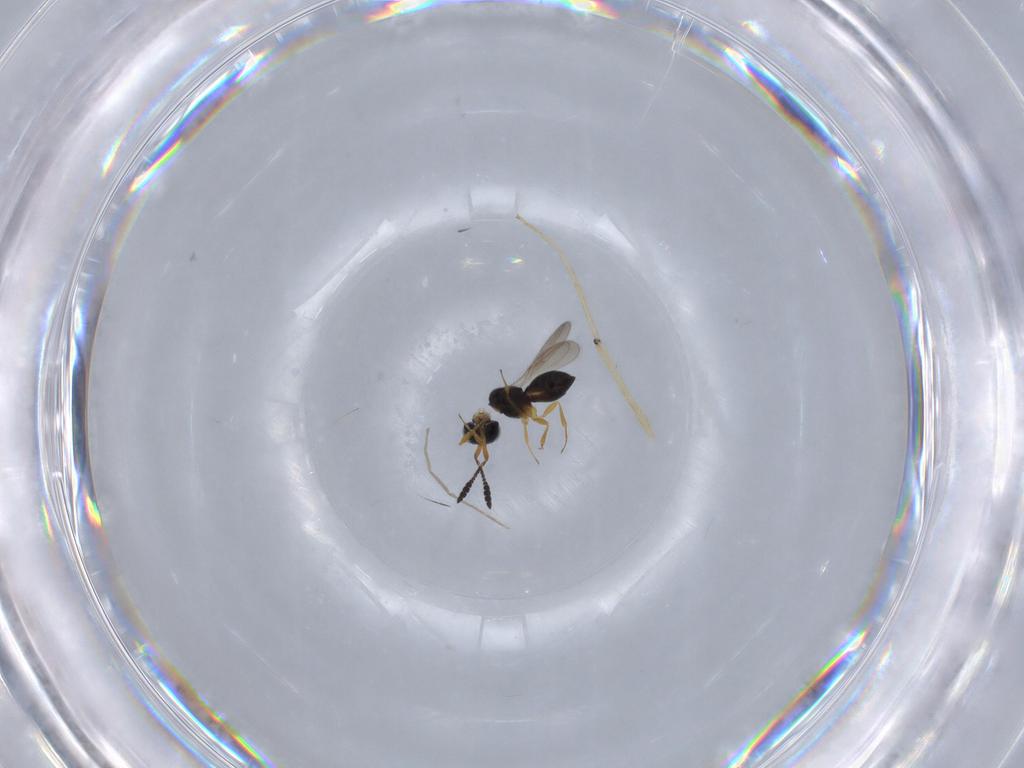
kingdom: Animalia
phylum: Arthropoda
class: Insecta
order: Hymenoptera
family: Scelionidae
